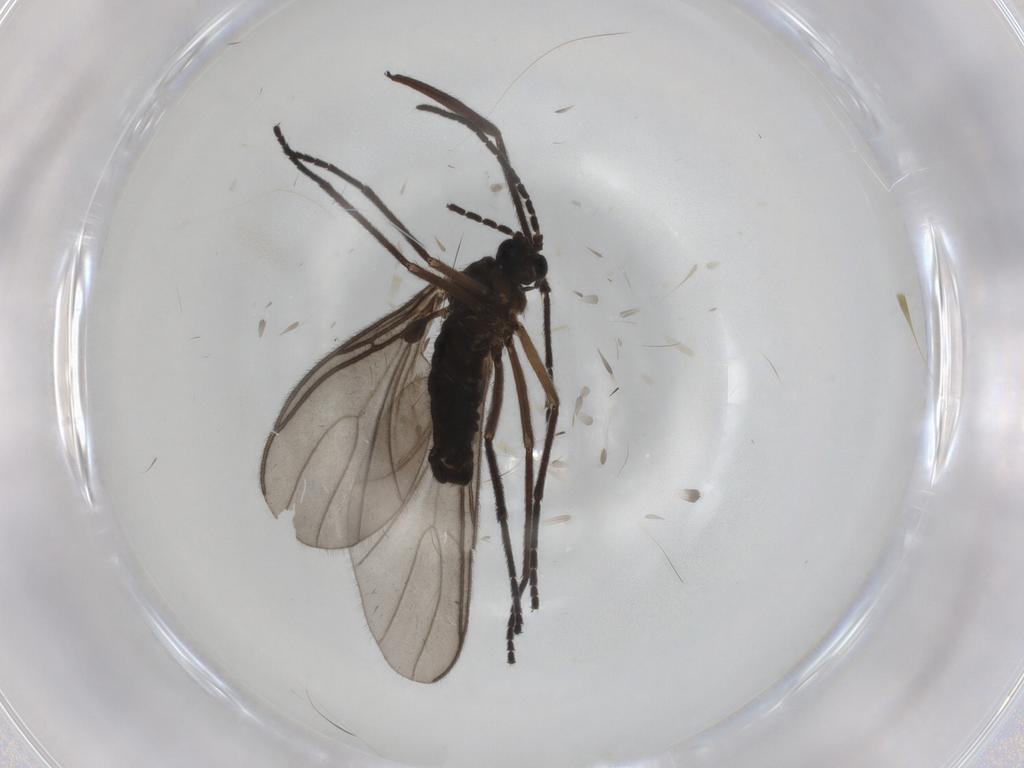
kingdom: Animalia
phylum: Arthropoda
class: Insecta
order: Diptera
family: Sciaridae
